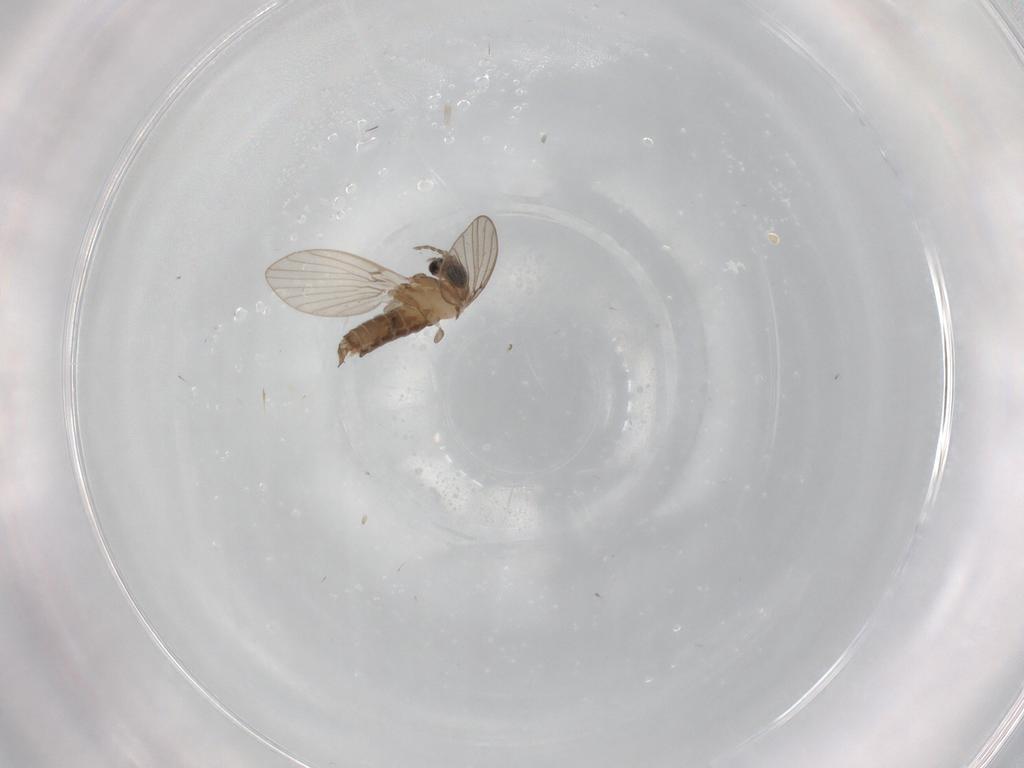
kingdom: Animalia
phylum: Arthropoda
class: Insecta
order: Diptera
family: Psychodidae
